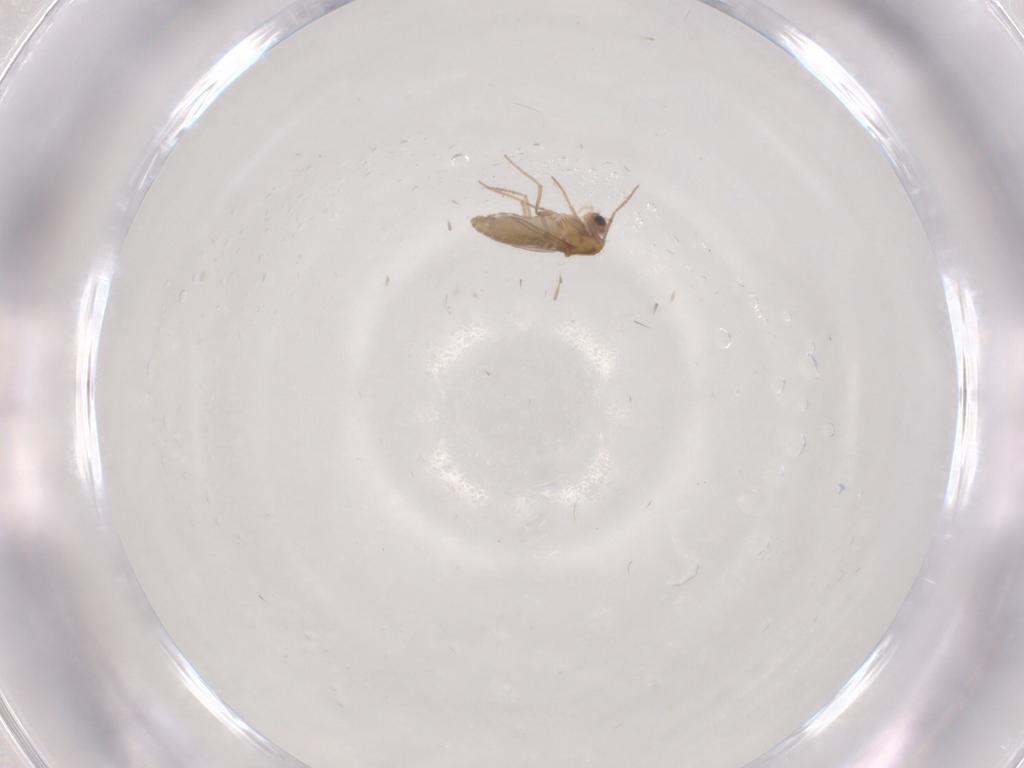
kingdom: Animalia
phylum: Arthropoda
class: Insecta
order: Diptera
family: Chironomidae
